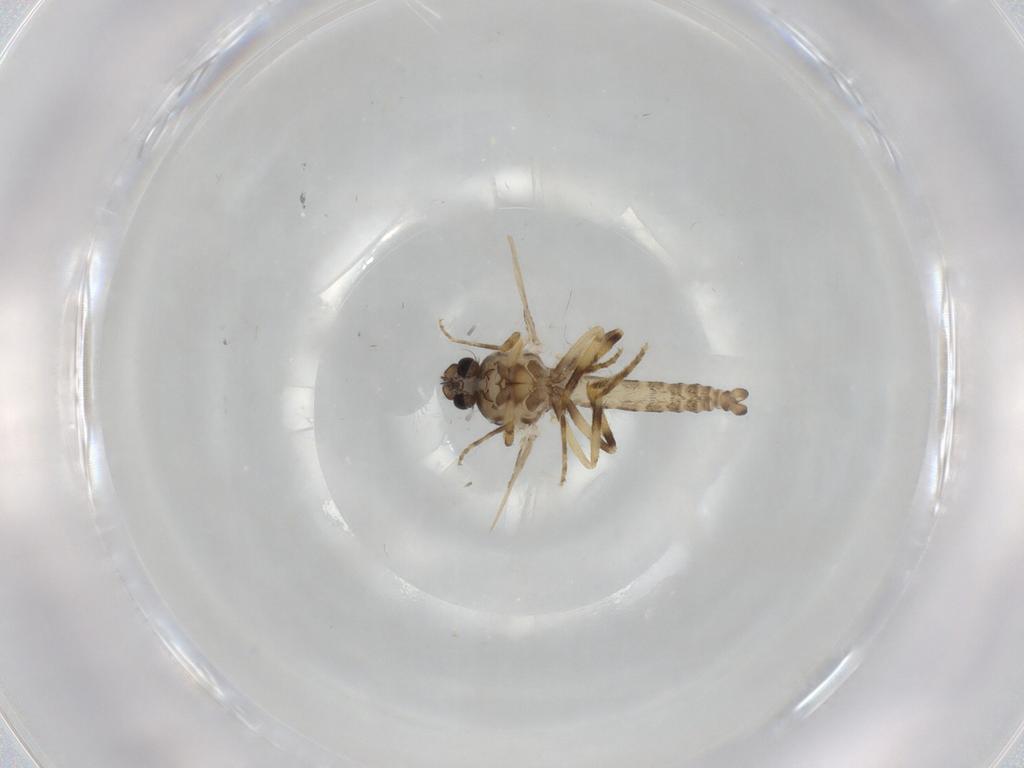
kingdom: Animalia
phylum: Arthropoda
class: Insecta
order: Diptera
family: Ceratopogonidae
